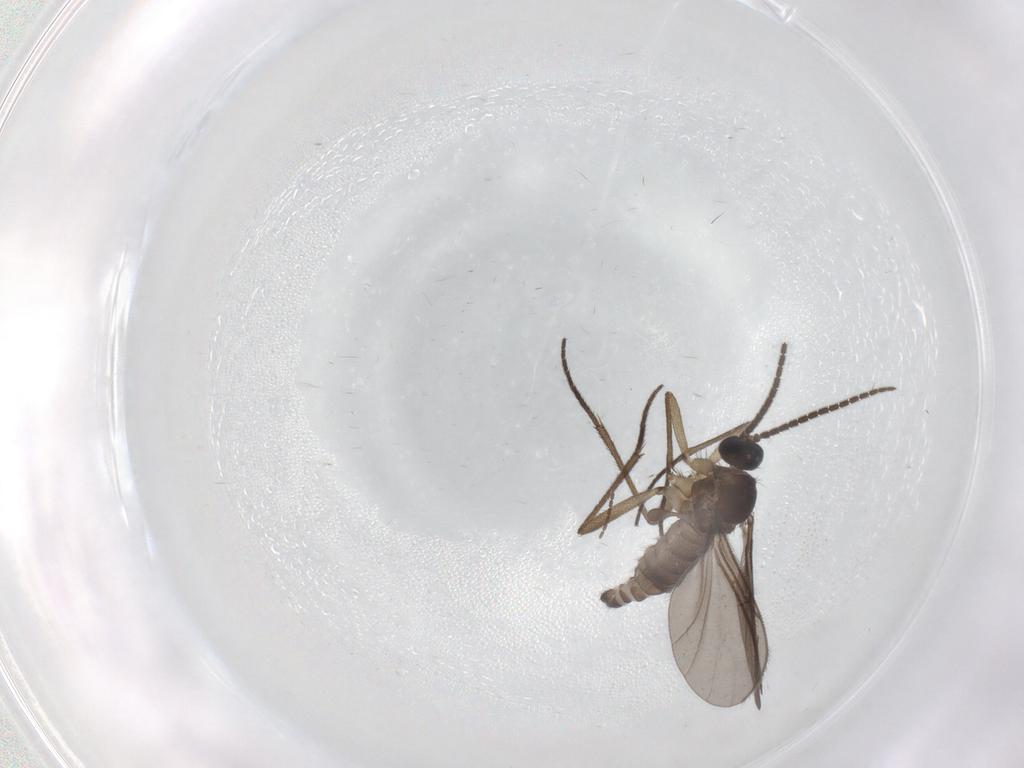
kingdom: Animalia
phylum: Arthropoda
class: Insecta
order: Diptera
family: Sciaridae
